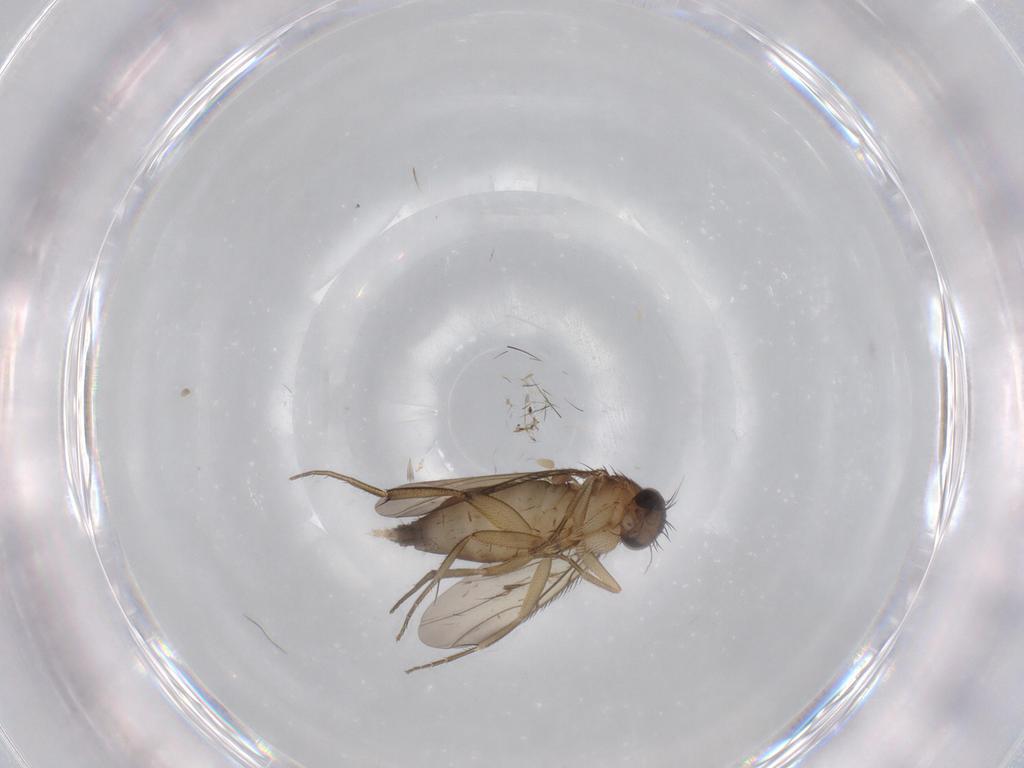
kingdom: Animalia
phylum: Arthropoda
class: Insecta
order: Diptera
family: Phoridae
